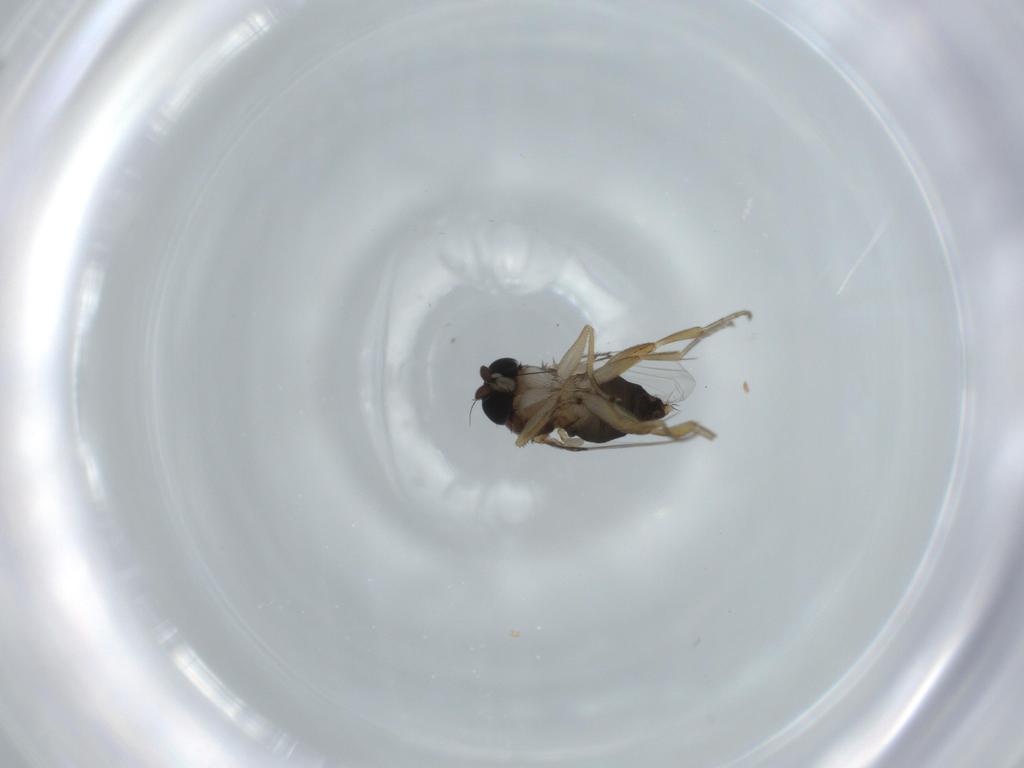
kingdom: Animalia
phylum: Arthropoda
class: Insecta
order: Diptera
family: Phoridae
